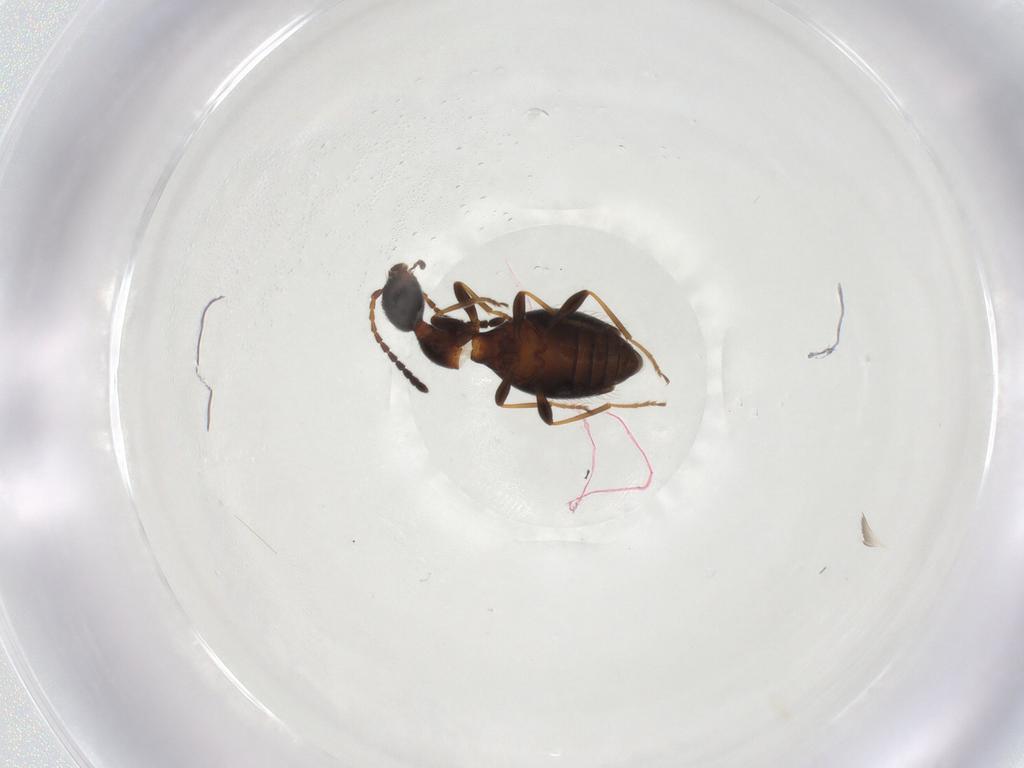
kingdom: Animalia
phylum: Arthropoda
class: Insecta
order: Coleoptera
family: Anthicidae
